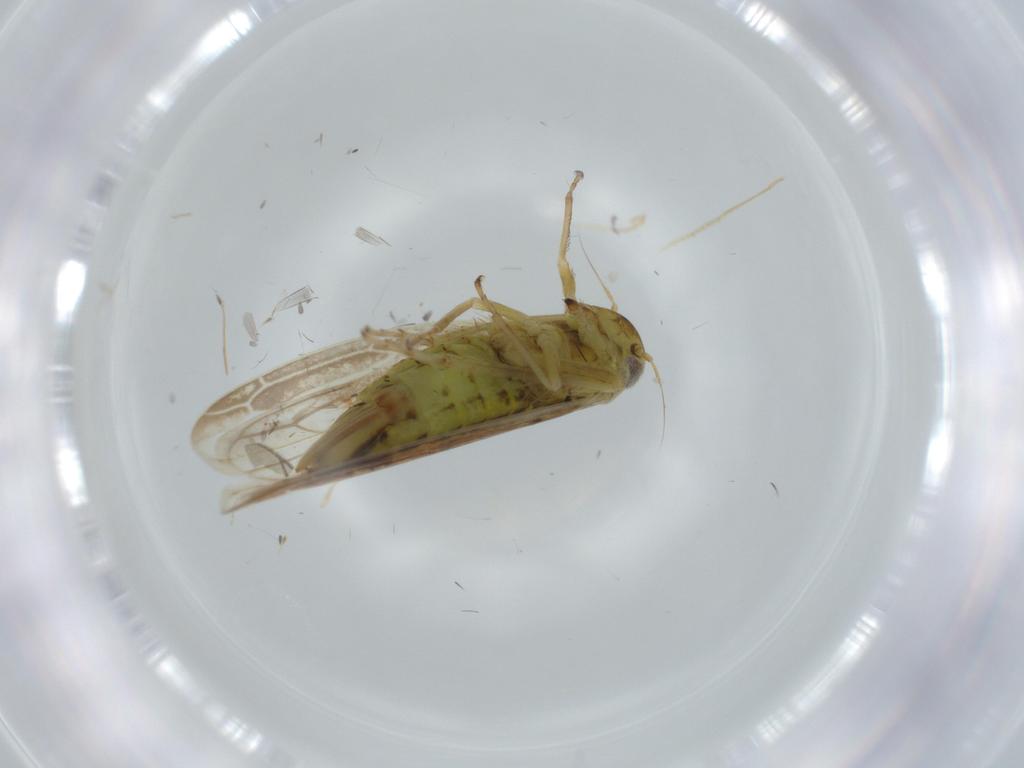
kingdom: Animalia
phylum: Arthropoda
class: Insecta
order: Hemiptera
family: Cicadellidae
